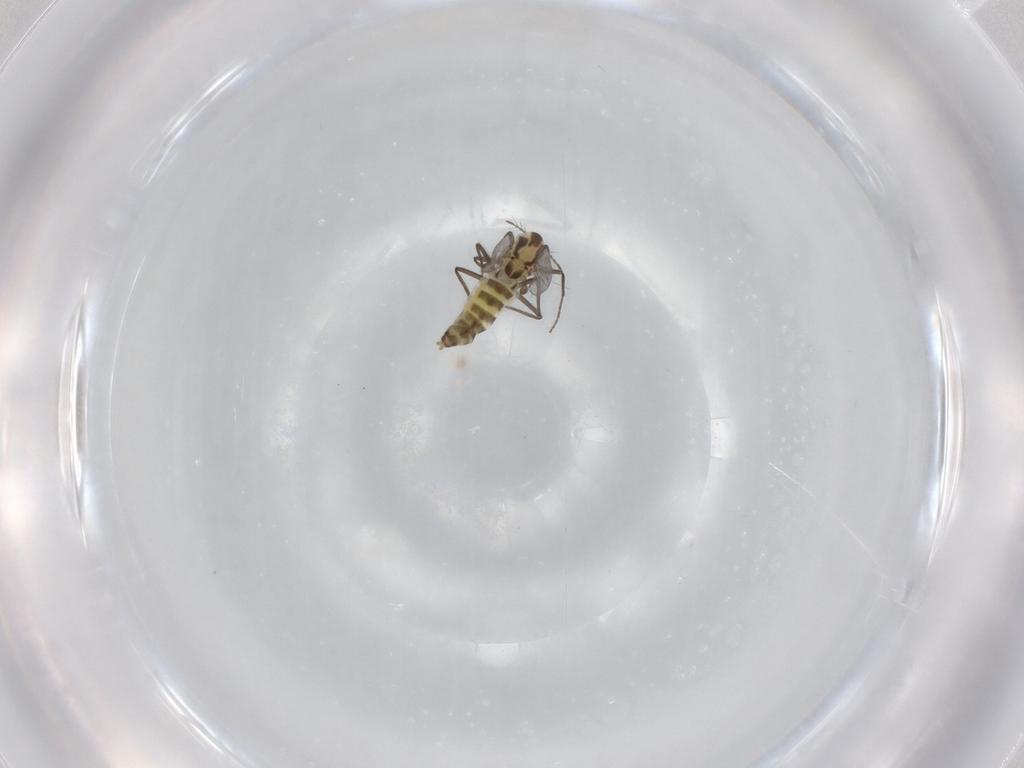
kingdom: Animalia
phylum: Arthropoda
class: Insecta
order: Diptera
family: Chironomidae
